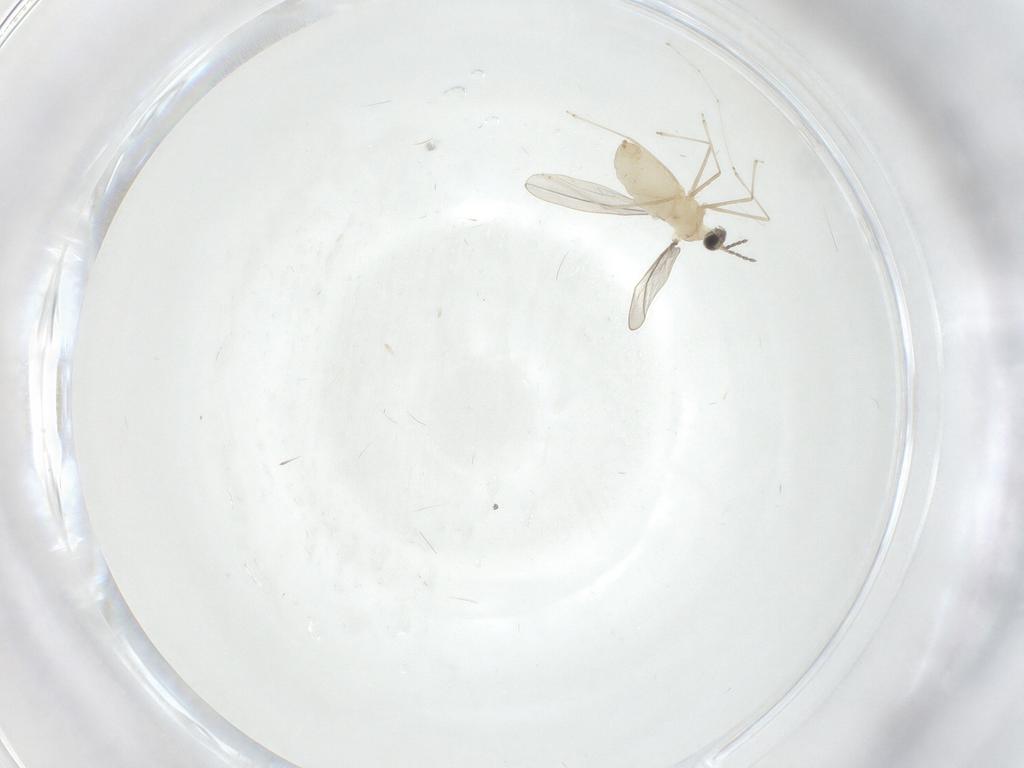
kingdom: Animalia
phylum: Arthropoda
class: Insecta
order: Diptera
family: Cecidomyiidae
